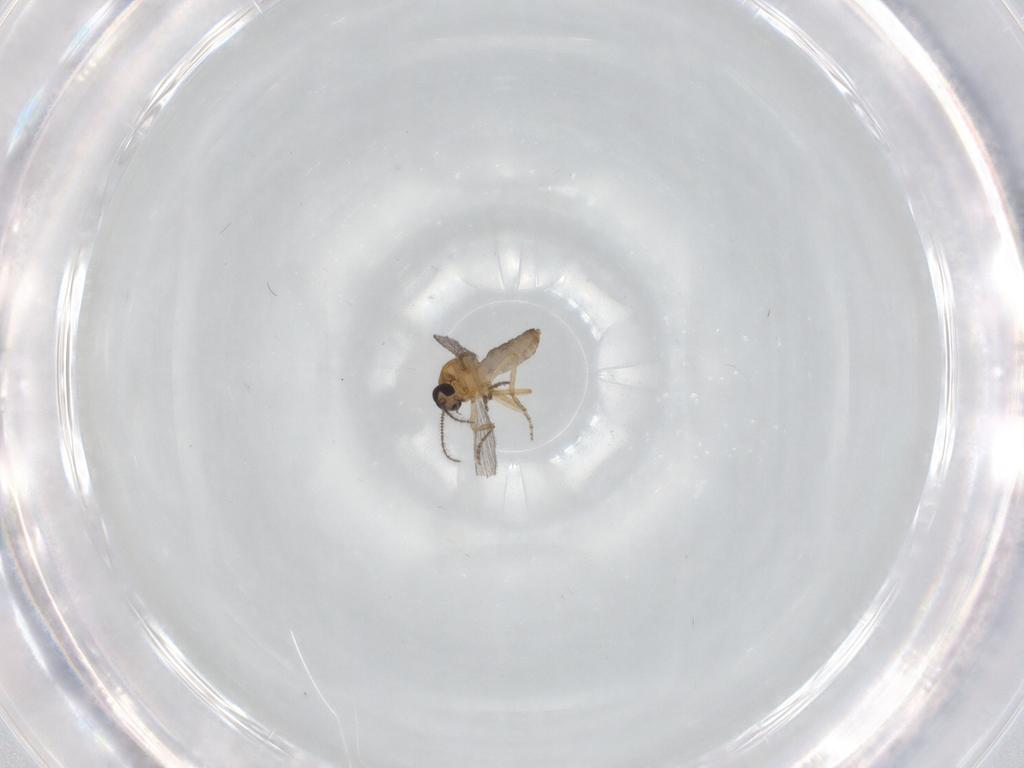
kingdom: Animalia
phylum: Arthropoda
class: Insecta
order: Diptera
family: Ceratopogonidae
